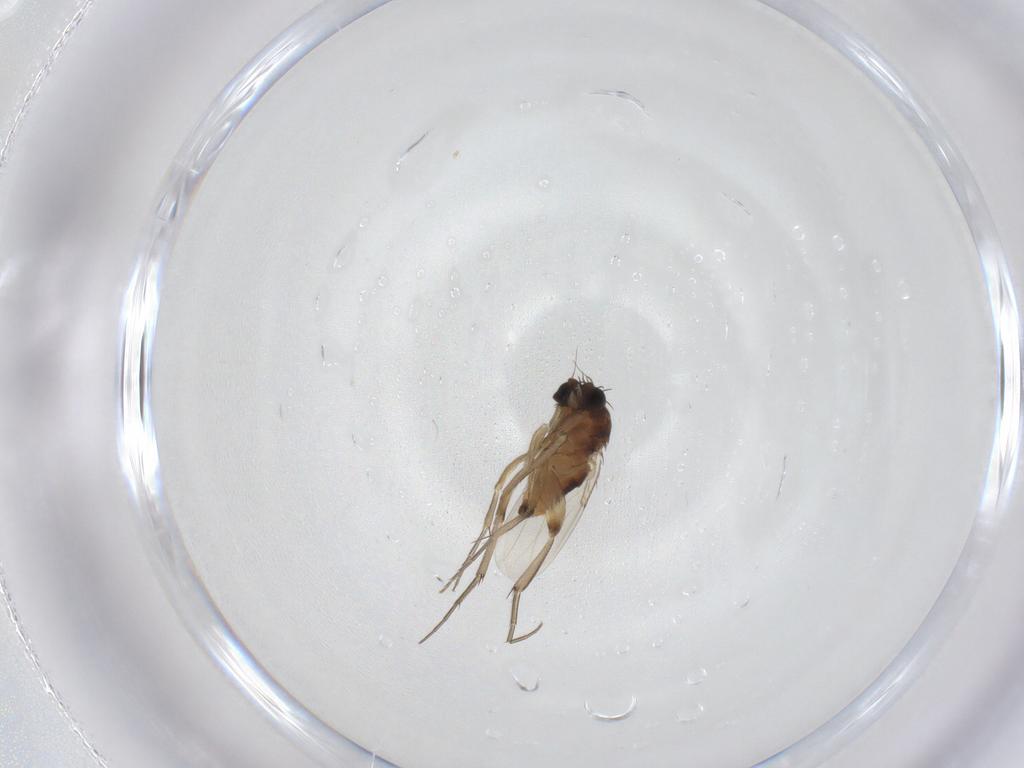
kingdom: Animalia
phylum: Arthropoda
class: Insecta
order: Diptera
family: Phoridae
